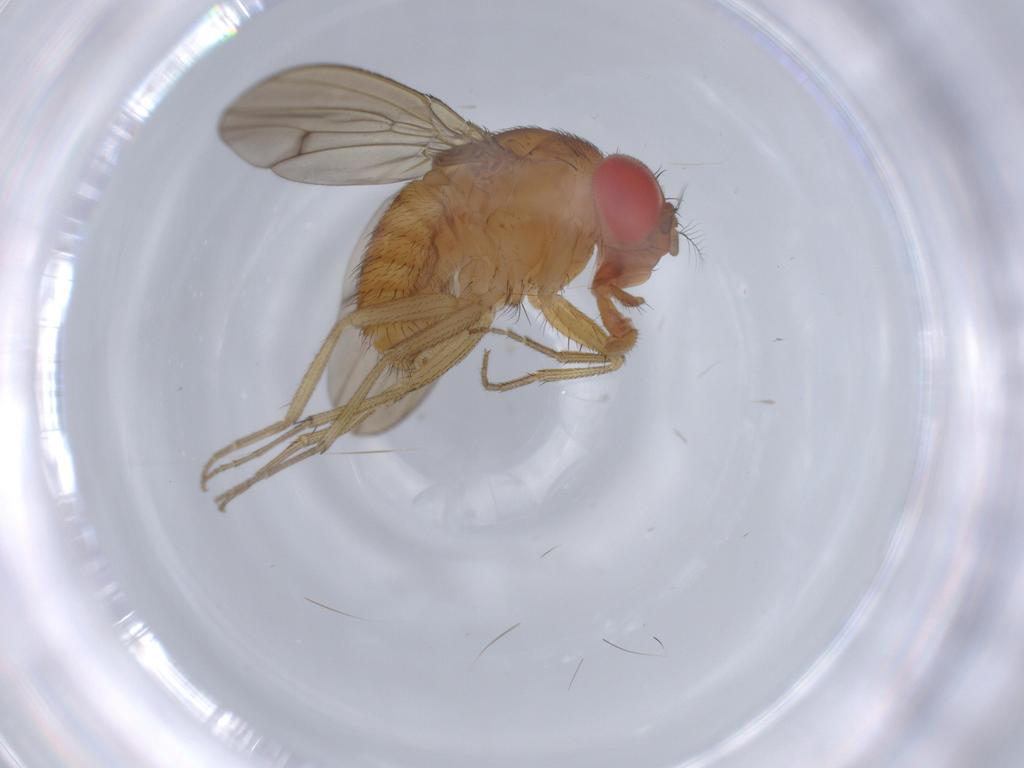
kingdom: Animalia
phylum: Arthropoda
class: Insecta
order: Diptera
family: Drosophilidae
